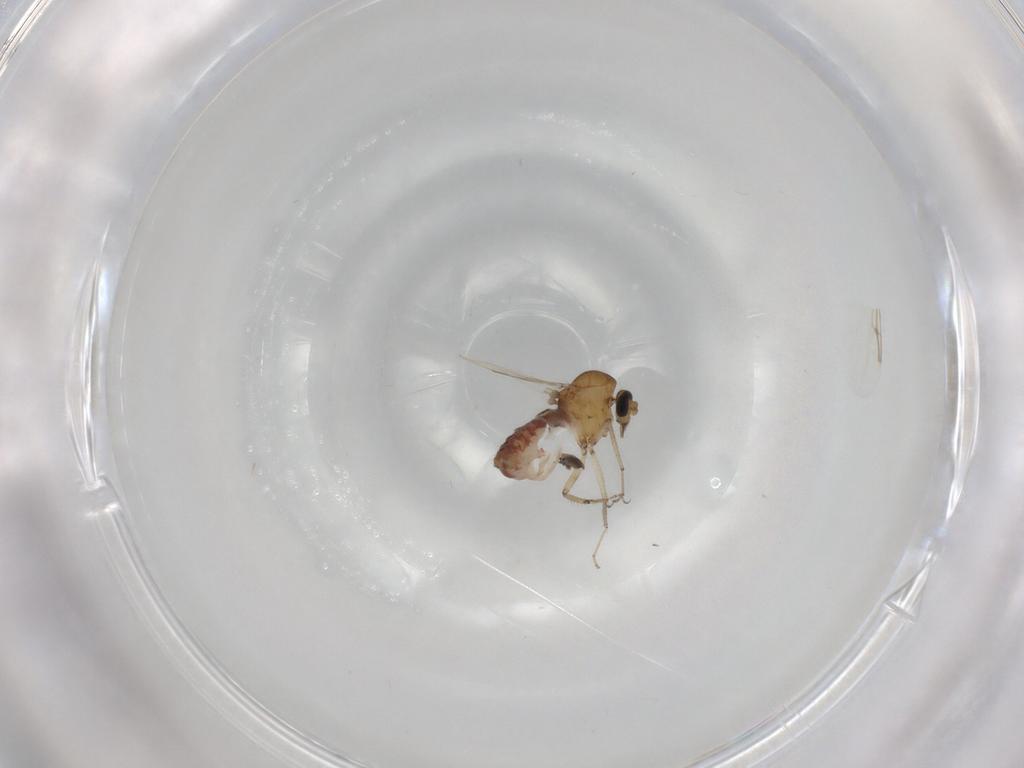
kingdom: Animalia
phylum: Arthropoda
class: Insecta
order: Diptera
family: Ceratopogonidae
